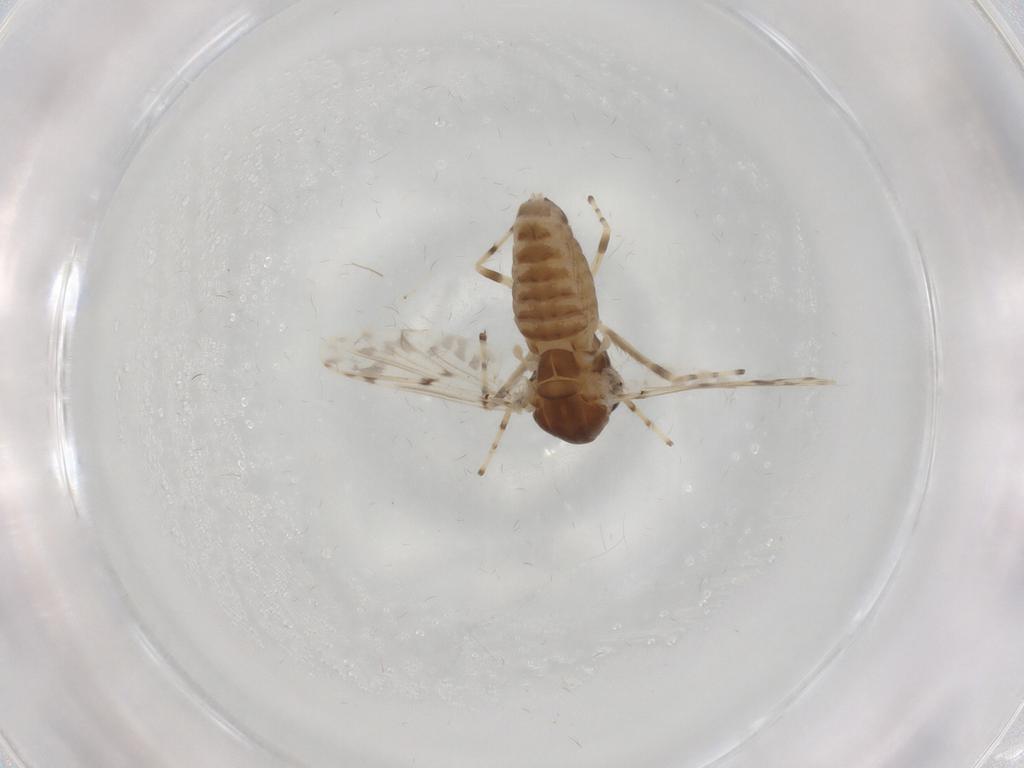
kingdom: Animalia
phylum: Arthropoda
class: Insecta
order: Diptera
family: Chironomidae
